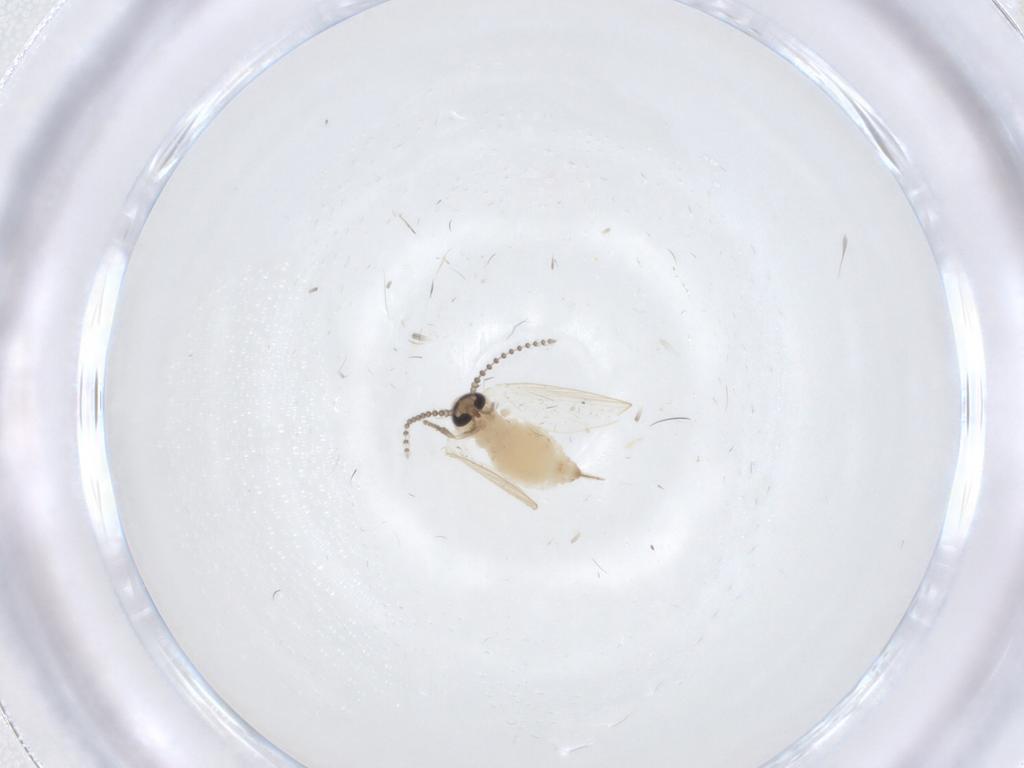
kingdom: Animalia
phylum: Arthropoda
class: Insecta
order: Diptera
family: Psychodidae
